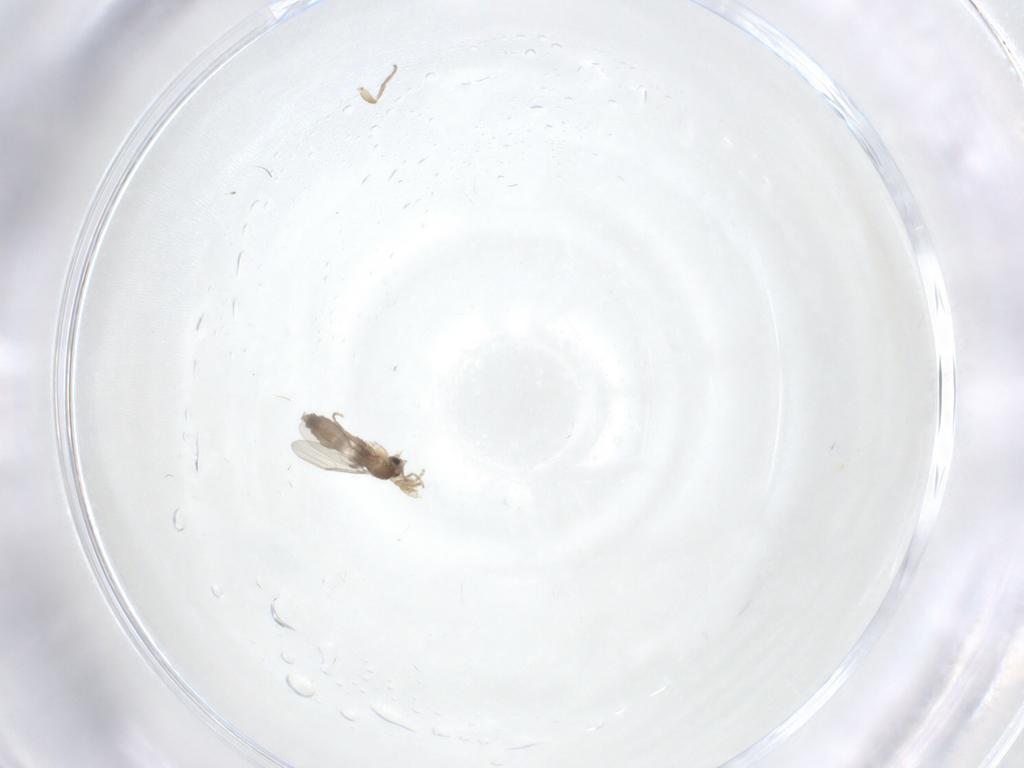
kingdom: Animalia
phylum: Arthropoda
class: Insecta
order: Diptera
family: Phoridae
